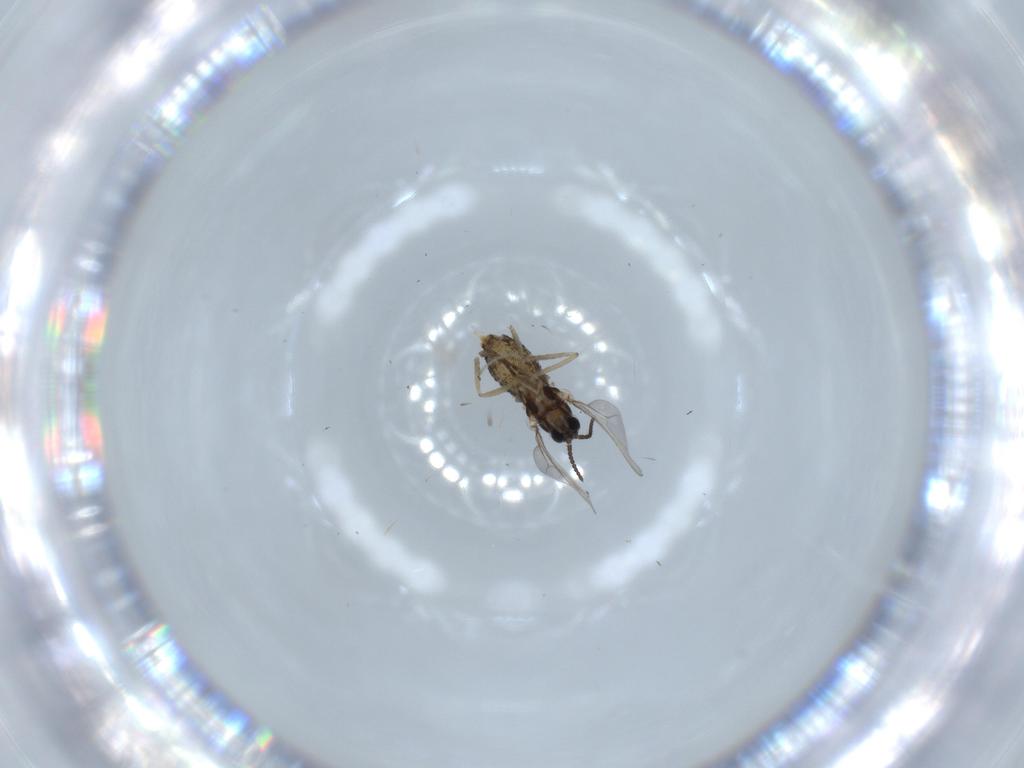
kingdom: Animalia
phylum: Arthropoda
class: Insecta
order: Diptera
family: Cecidomyiidae
